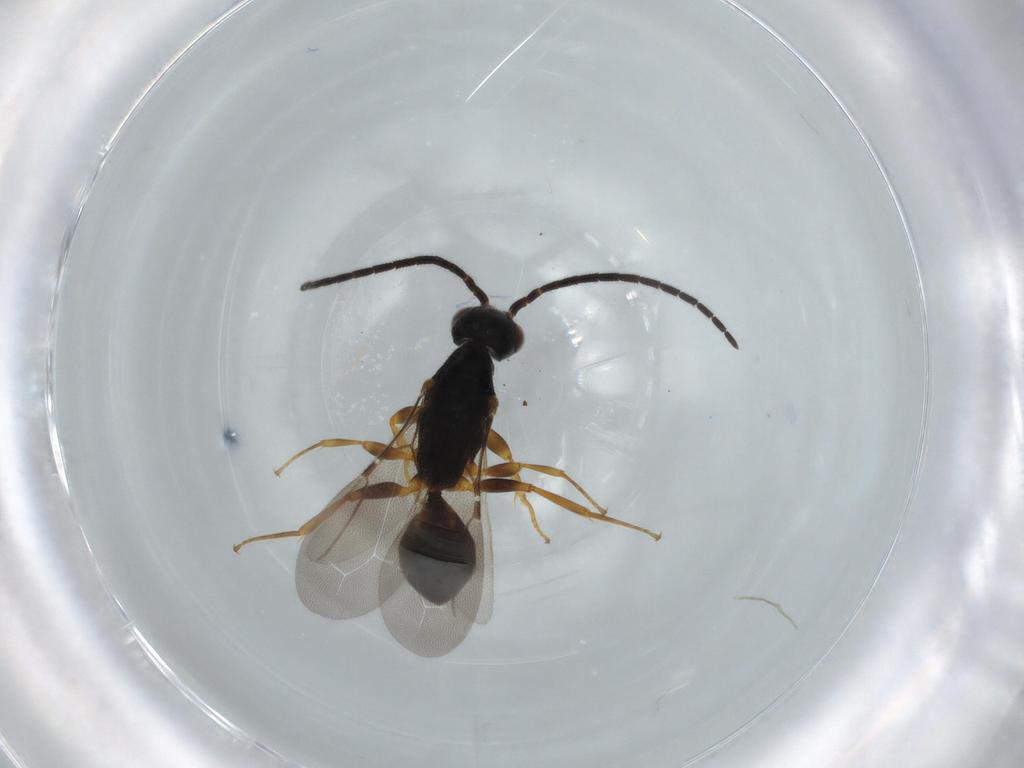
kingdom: Animalia
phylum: Arthropoda
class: Insecta
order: Hymenoptera
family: Bethylidae
